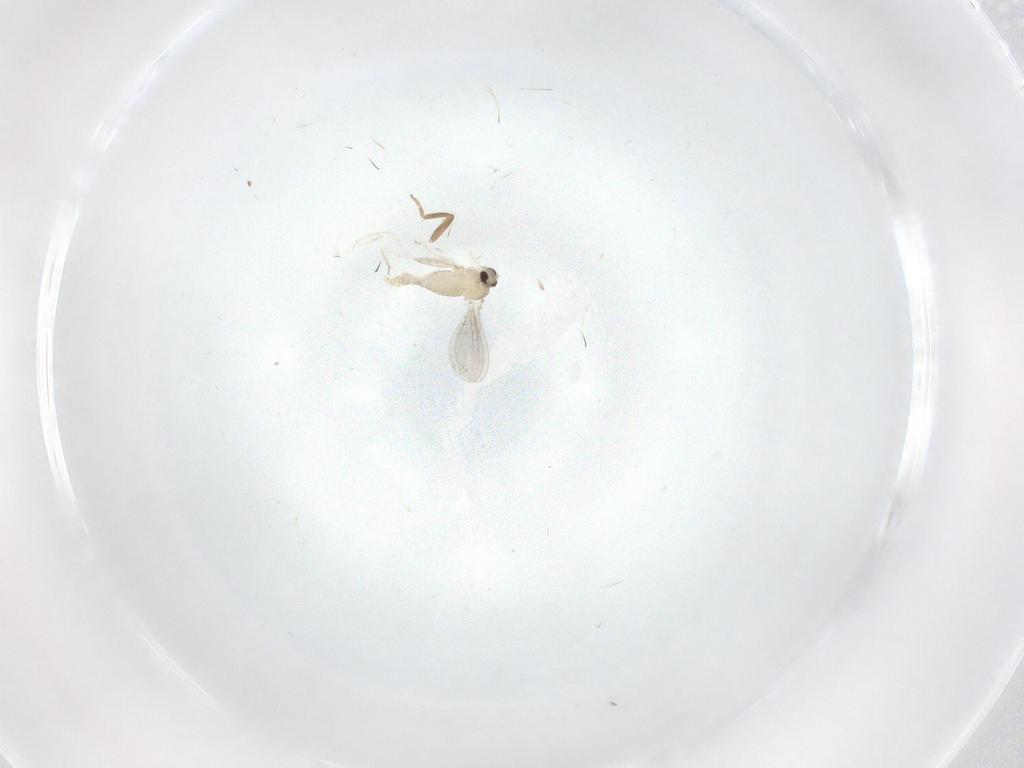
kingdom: Animalia
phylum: Arthropoda
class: Insecta
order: Diptera
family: Cecidomyiidae
